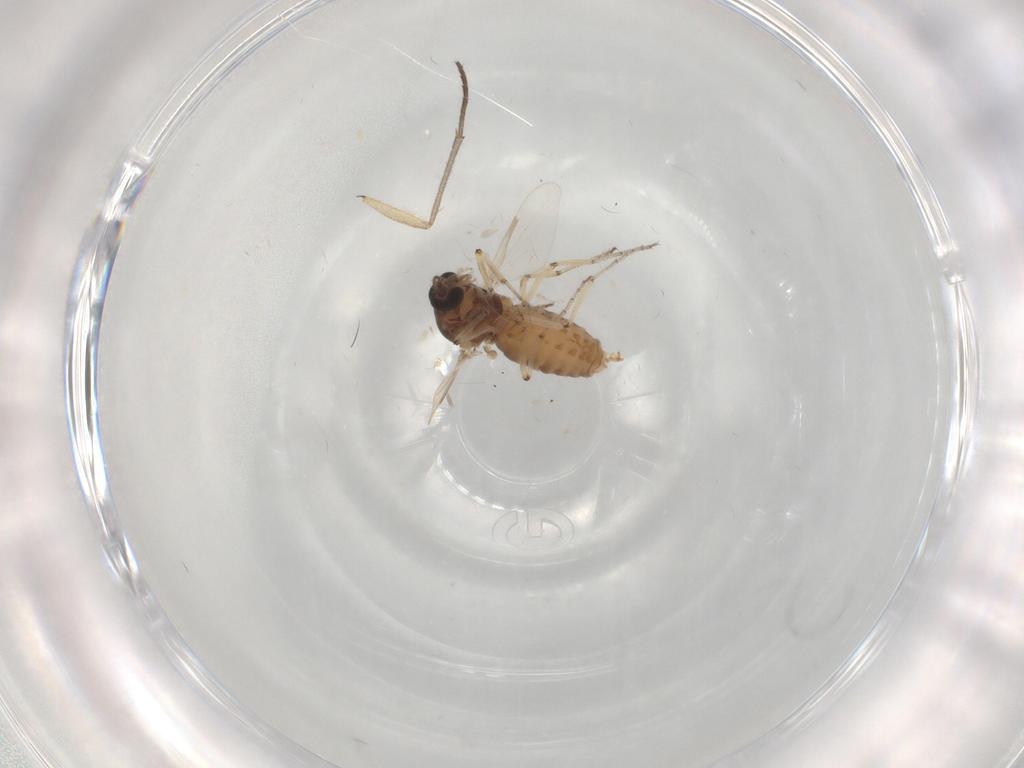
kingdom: Animalia
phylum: Arthropoda
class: Insecta
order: Diptera
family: Ceratopogonidae
